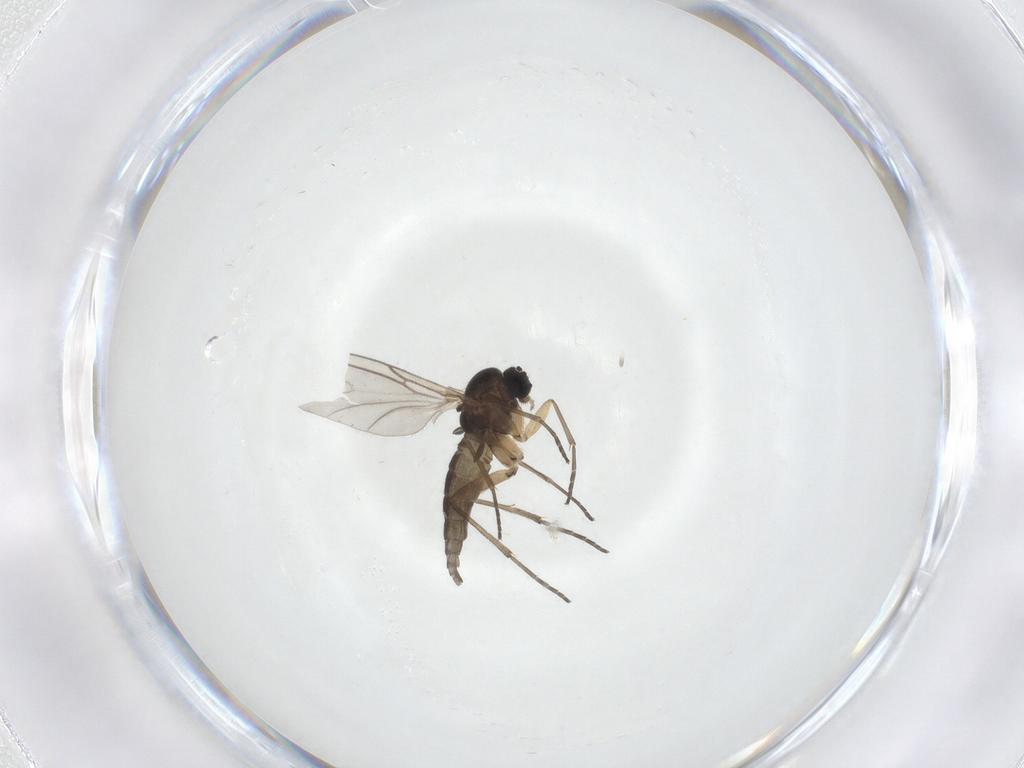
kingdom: Animalia
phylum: Arthropoda
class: Insecta
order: Diptera
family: Sciaridae
